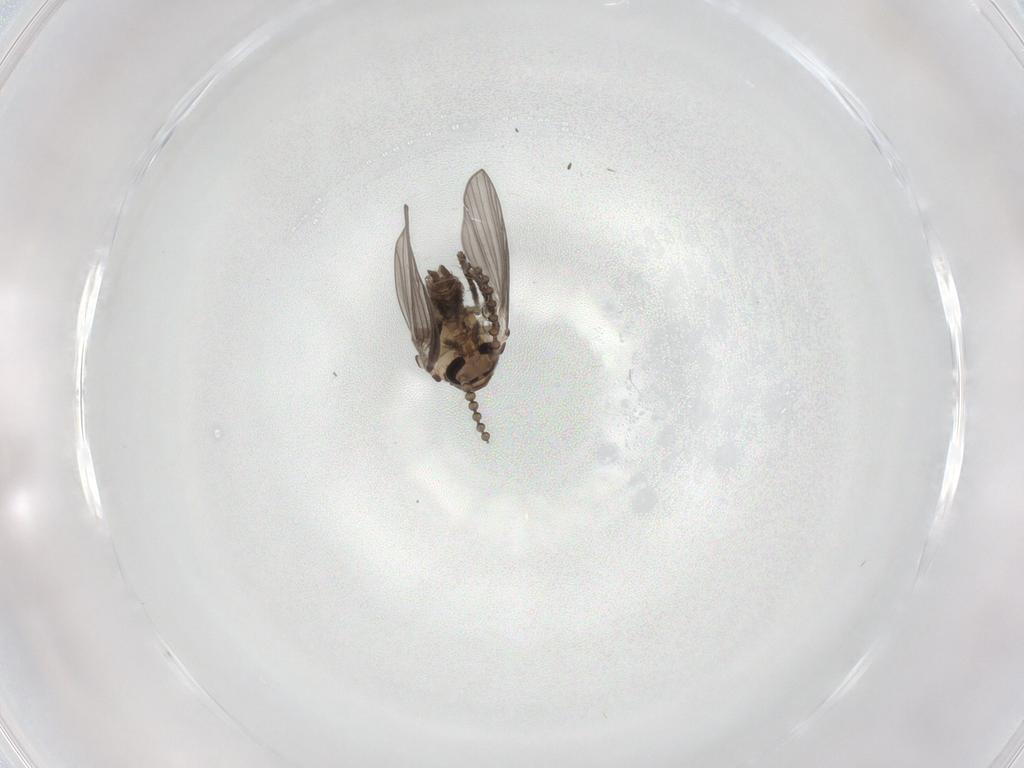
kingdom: Animalia
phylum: Arthropoda
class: Insecta
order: Diptera
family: Psychodidae
